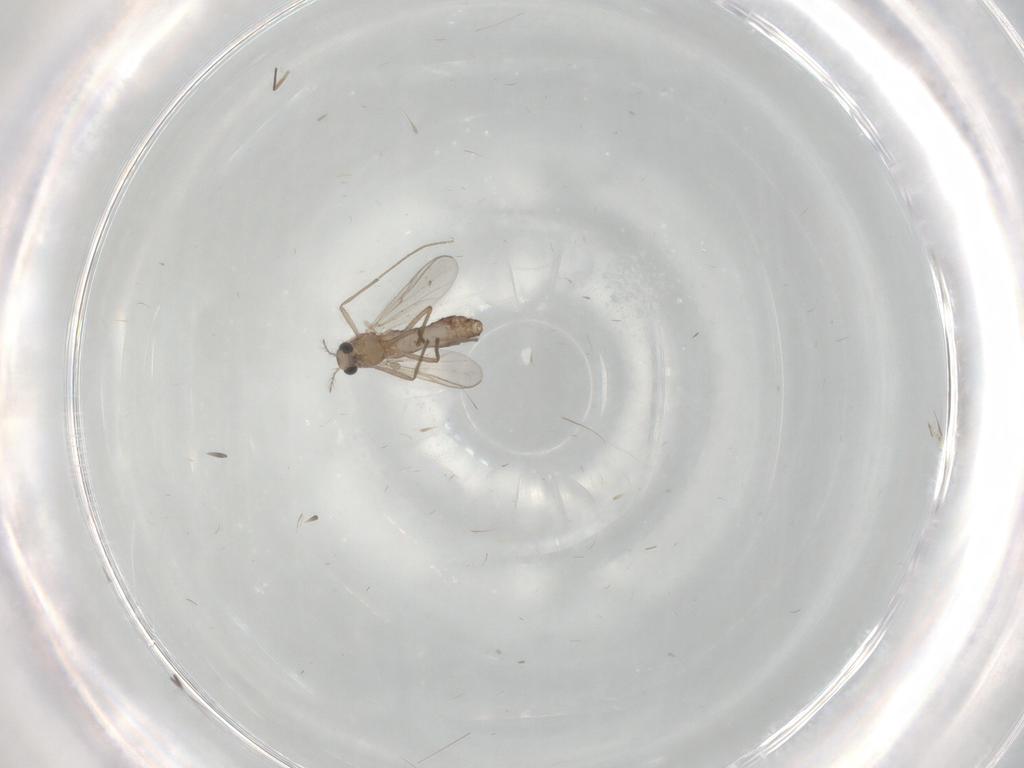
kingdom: Animalia
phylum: Arthropoda
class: Insecta
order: Diptera
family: Chironomidae
